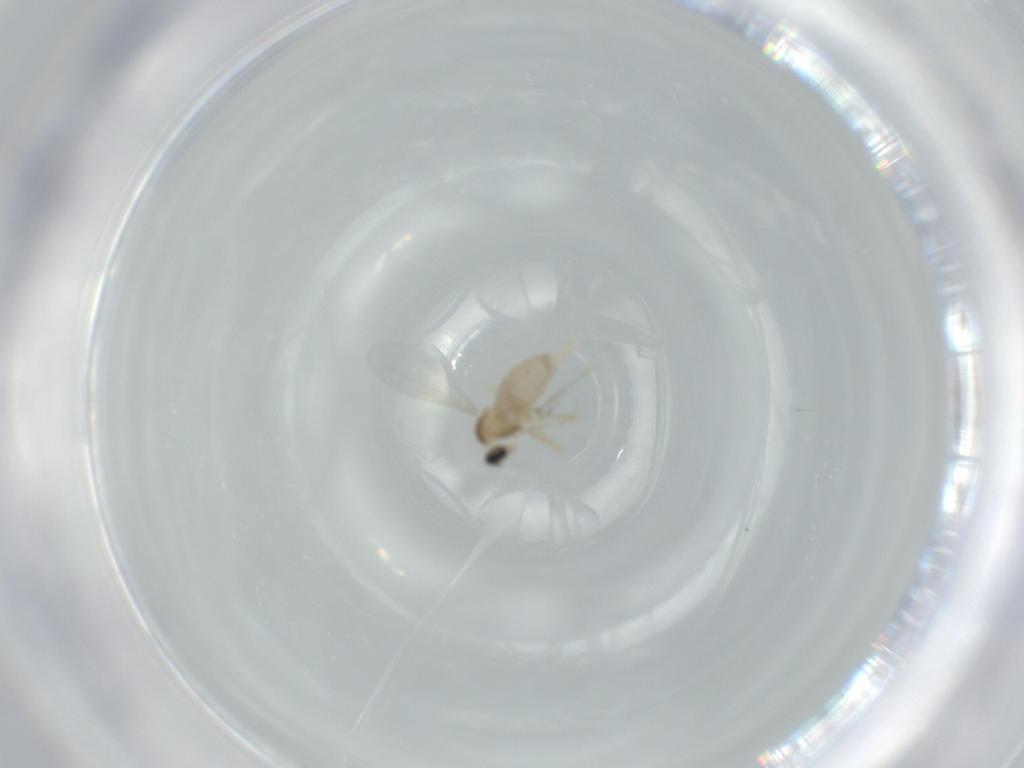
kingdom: Animalia
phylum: Arthropoda
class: Insecta
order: Diptera
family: Cecidomyiidae
